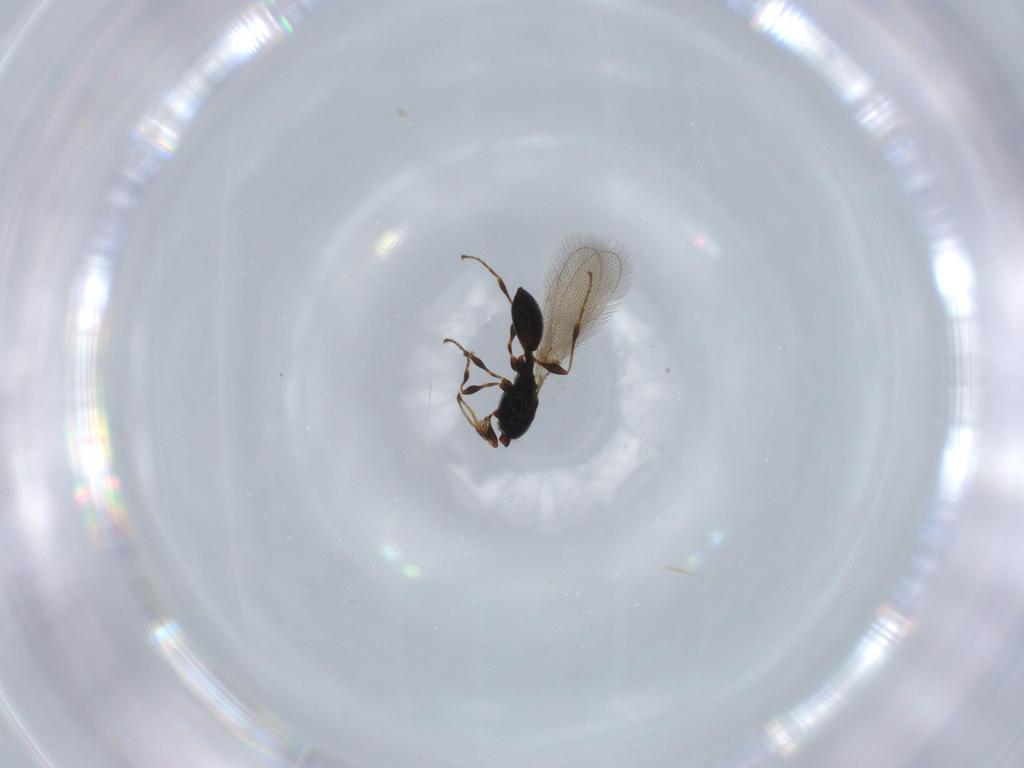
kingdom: Animalia
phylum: Arthropoda
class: Insecta
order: Hymenoptera
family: Diapriidae
